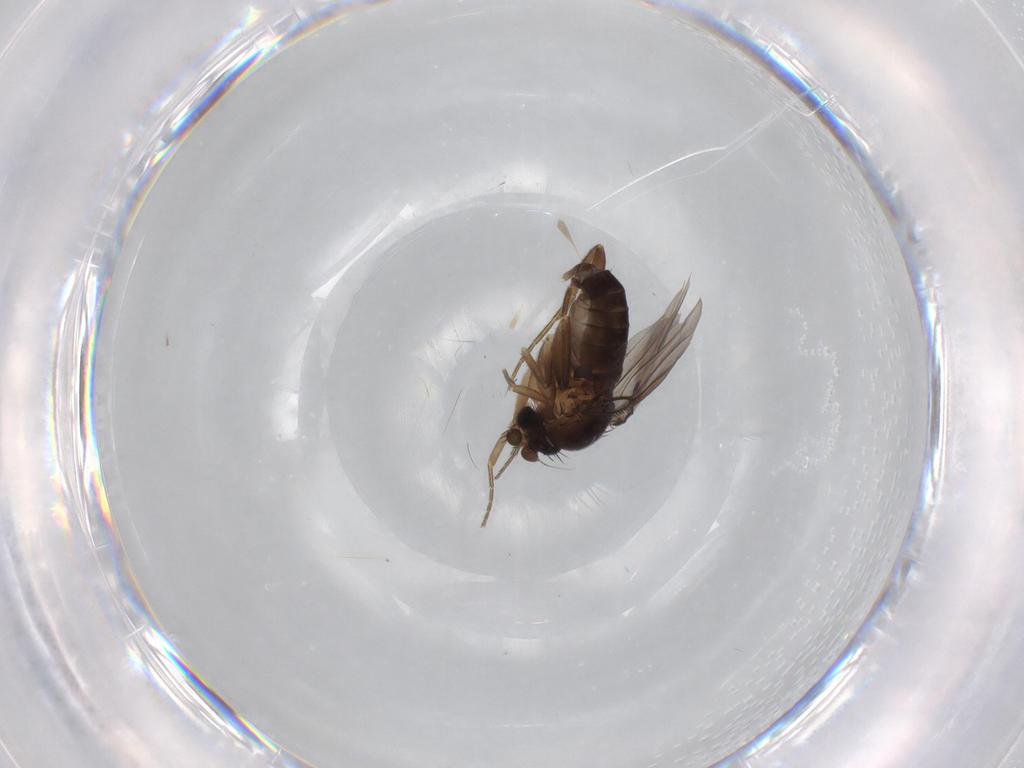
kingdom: Animalia
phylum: Arthropoda
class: Insecta
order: Diptera
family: Phoridae
